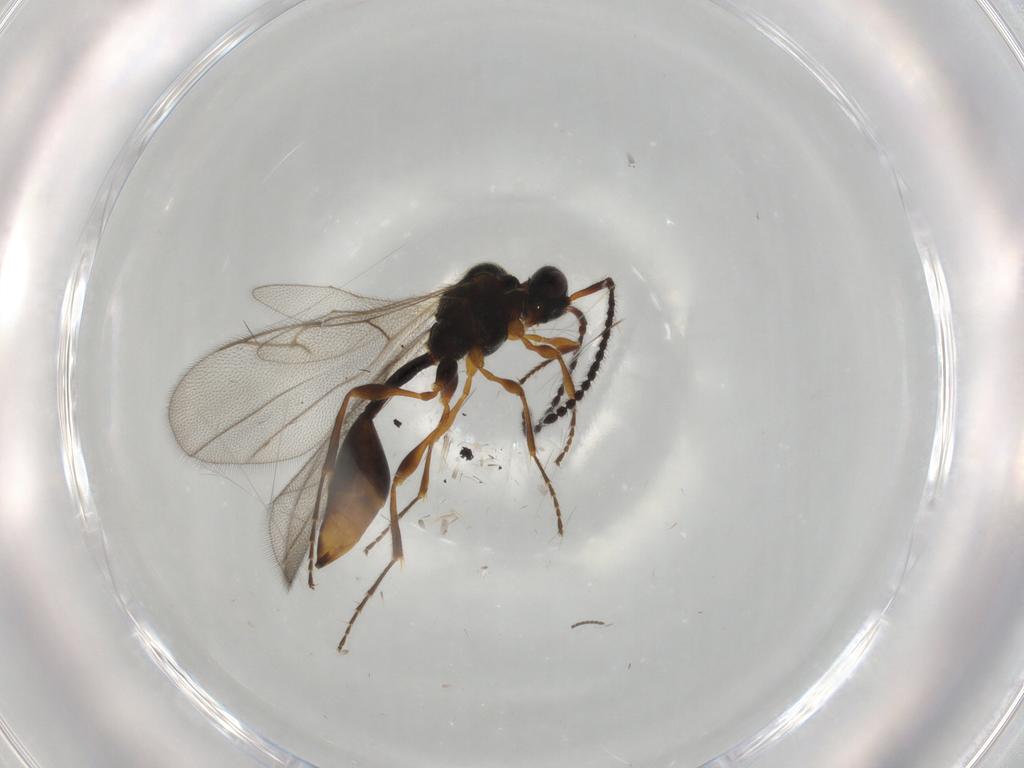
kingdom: Animalia
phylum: Arthropoda
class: Insecta
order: Hymenoptera
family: Diapriidae
